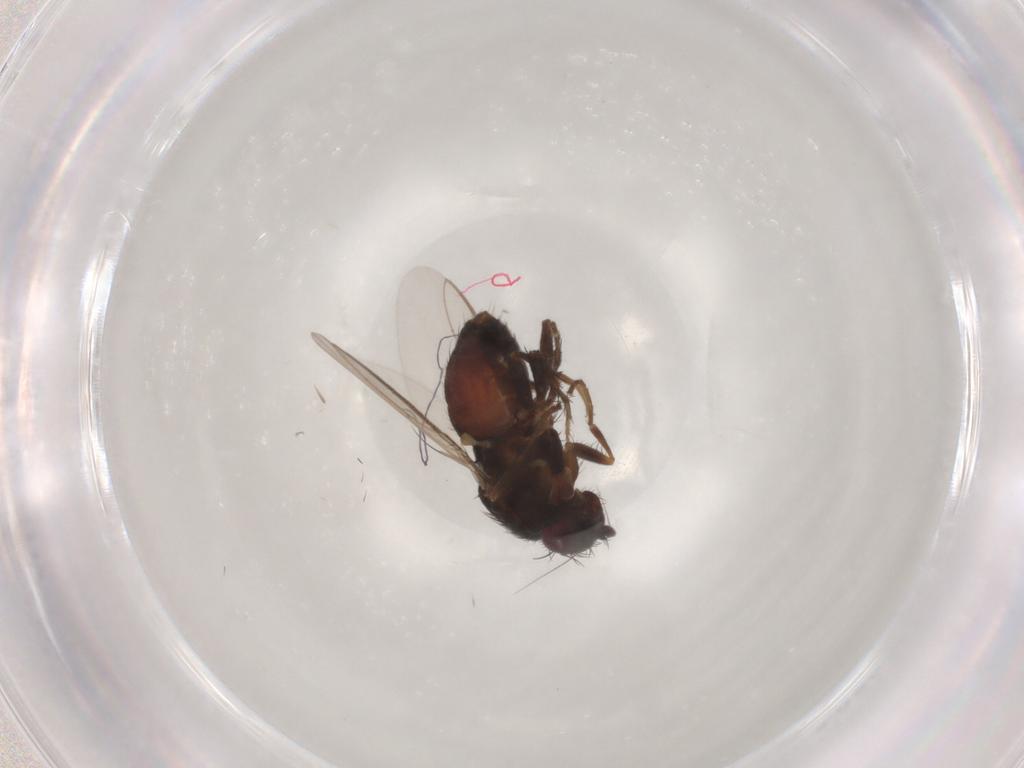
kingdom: Animalia
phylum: Arthropoda
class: Insecta
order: Diptera
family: Sphaeroceridae
